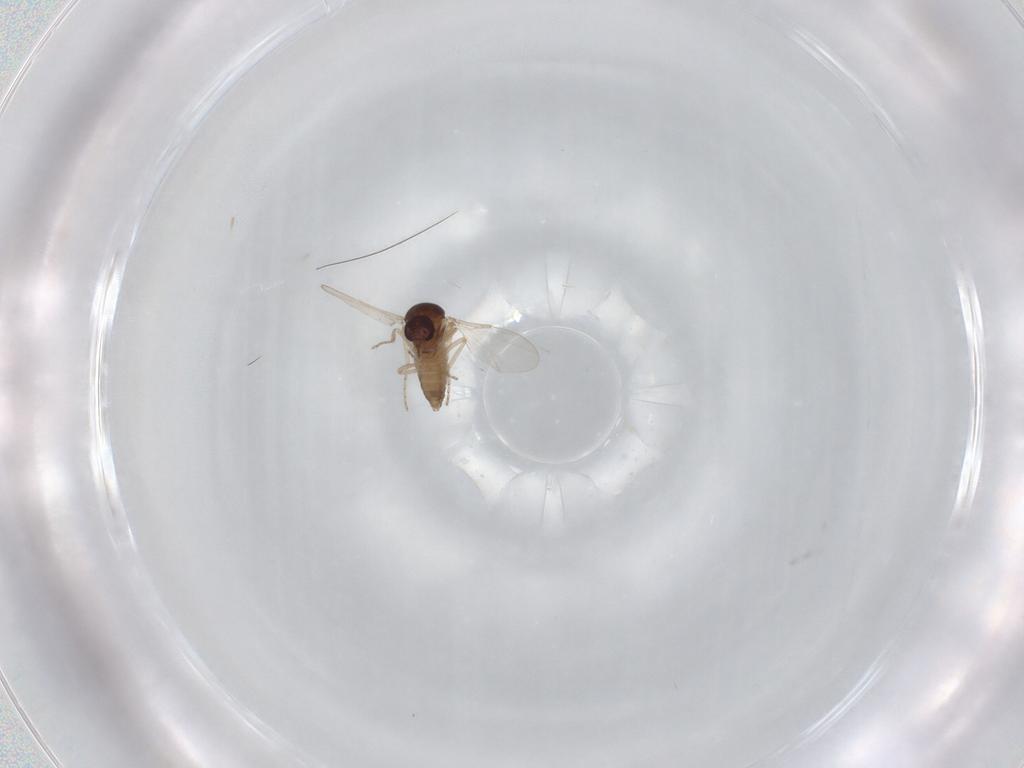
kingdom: Animalia
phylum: Arthropoda
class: Insecta
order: Diptera
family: Ceratopogonidae
